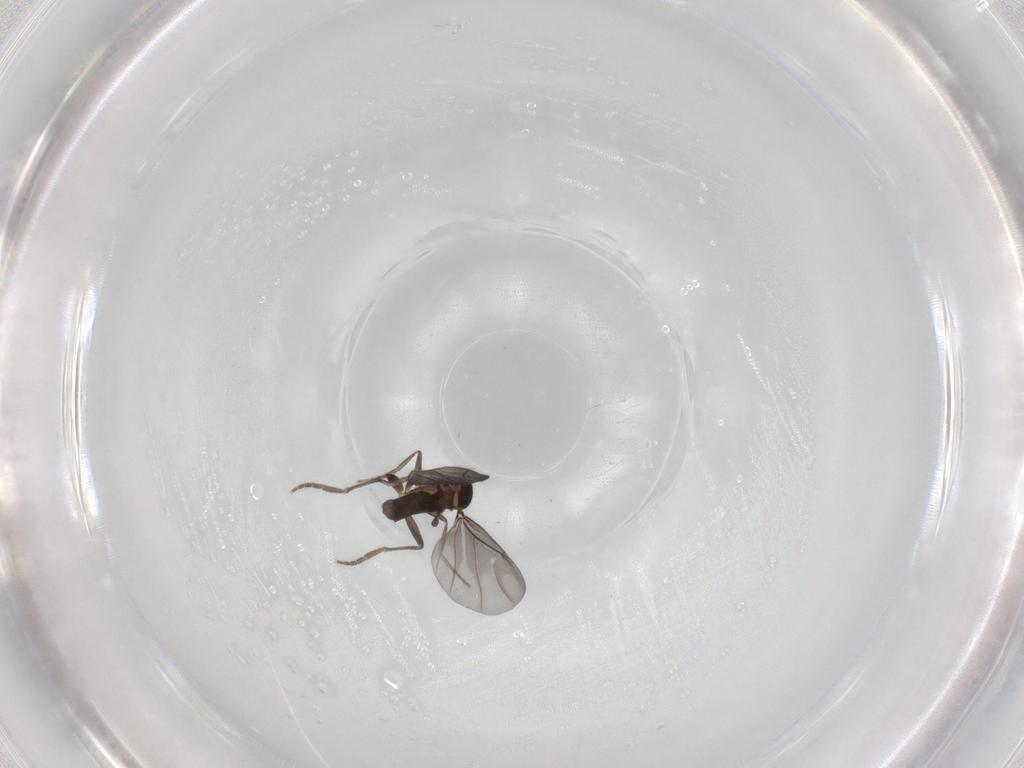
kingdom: Animalia
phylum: Arthropoda
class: Insecta
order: Diptera
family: Phoridae
